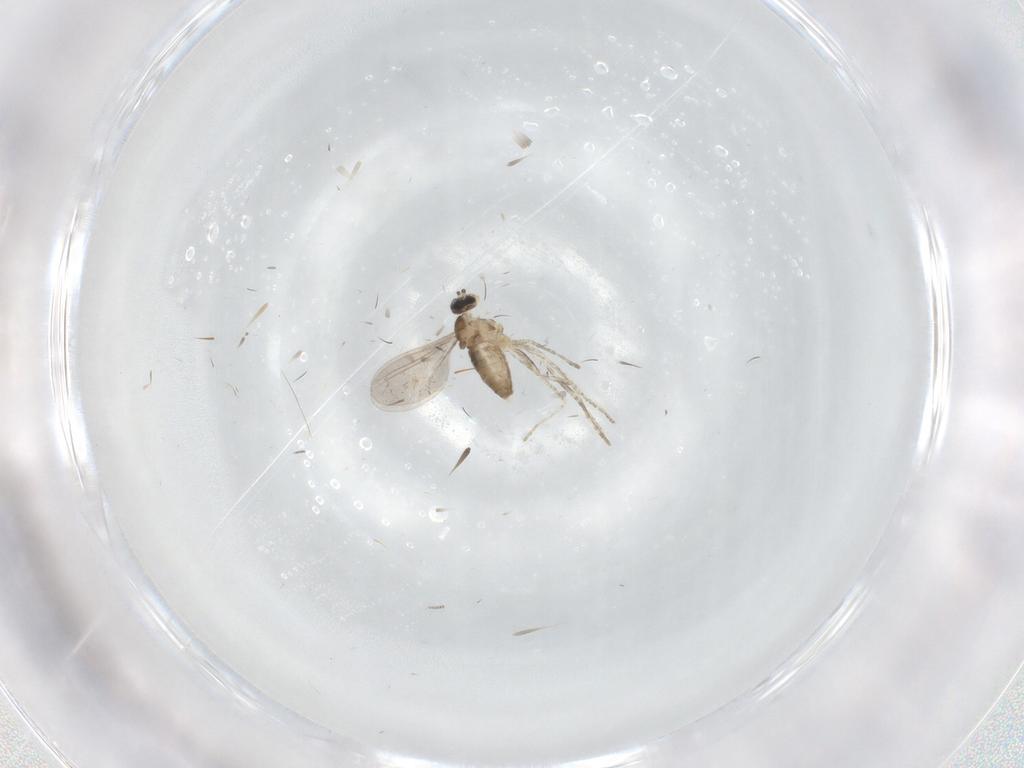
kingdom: Animalia
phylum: Arthropoda
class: Insecta
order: Diptera
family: Cecidomyiidae
